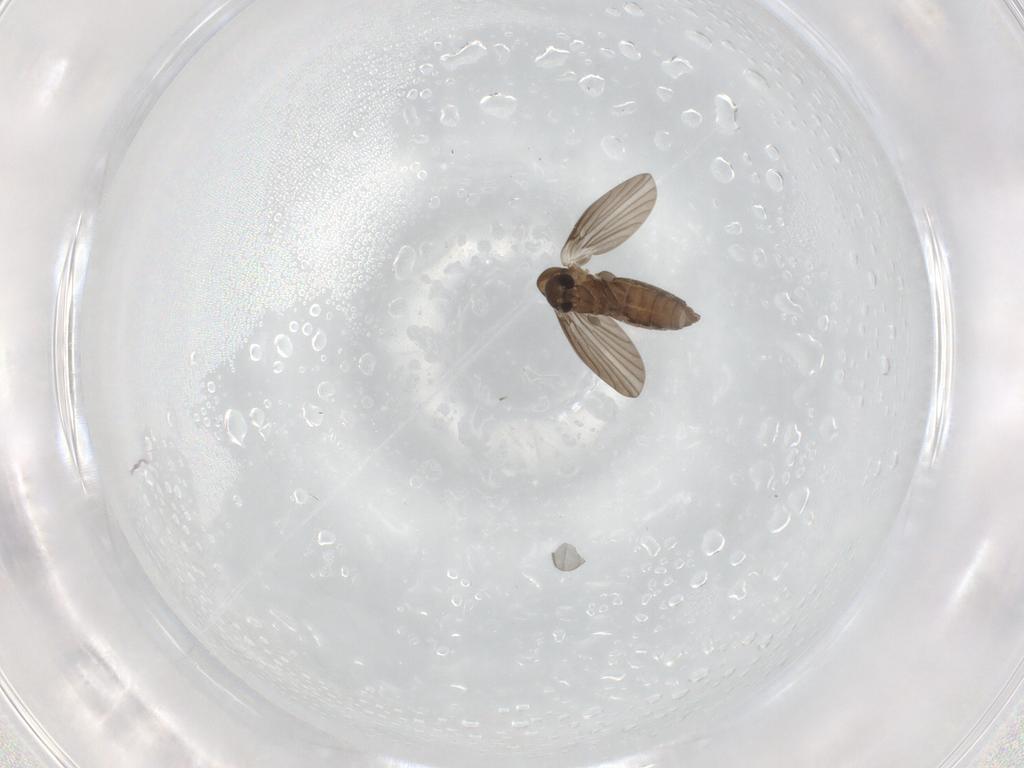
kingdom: Animalia
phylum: Arthropoda
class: Insecta
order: Diptera
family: Limoniidae
